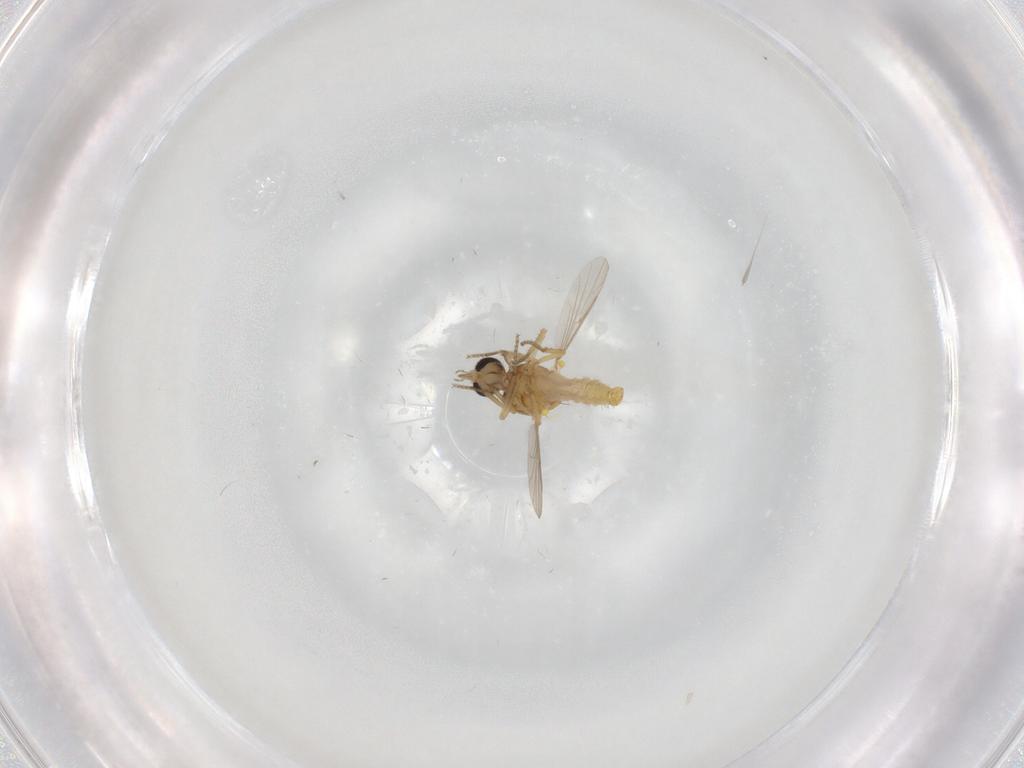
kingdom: Animalia
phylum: Arthropoda
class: Insecta
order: Diptera
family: Ceratopogonidae
